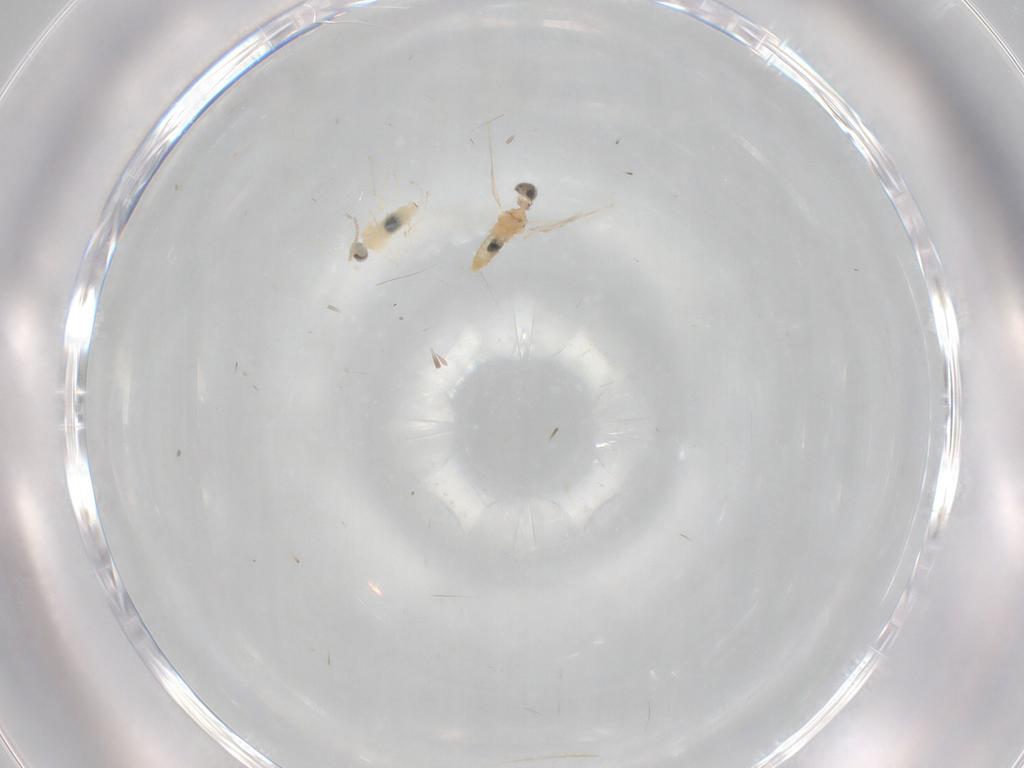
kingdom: Animalia
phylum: Arthropoda
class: Insecta
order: Diptera
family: Cecidomyiidae
